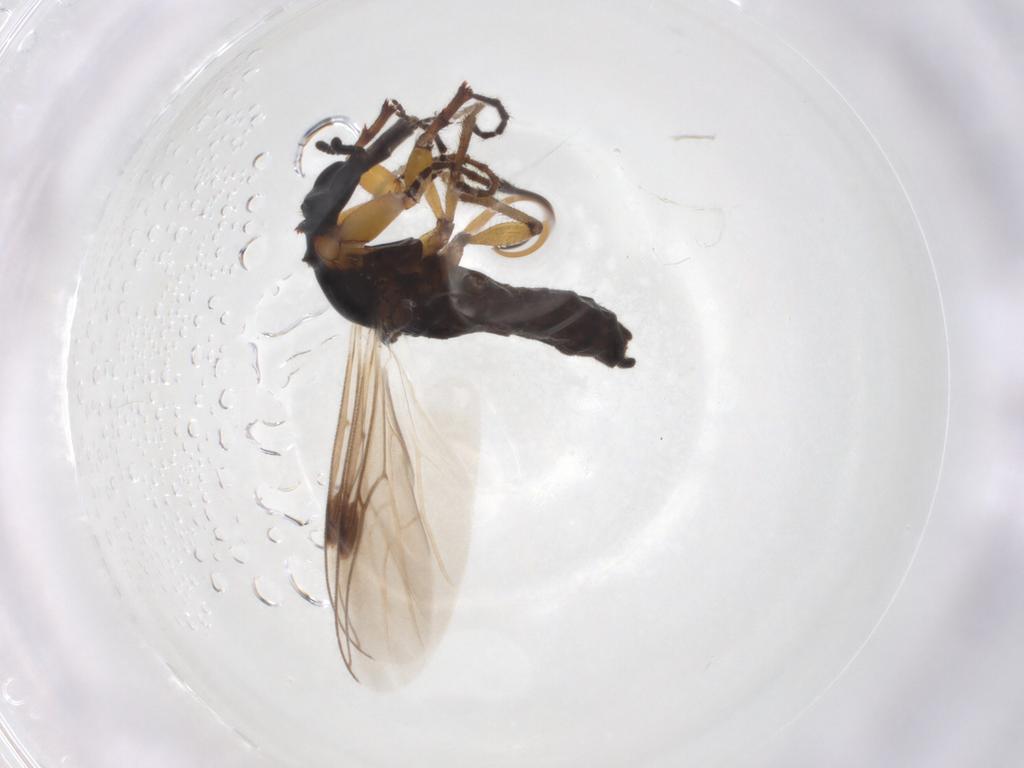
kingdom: Animalia
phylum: Arthropoda
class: Insecta
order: Diptera
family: Bibionidae
